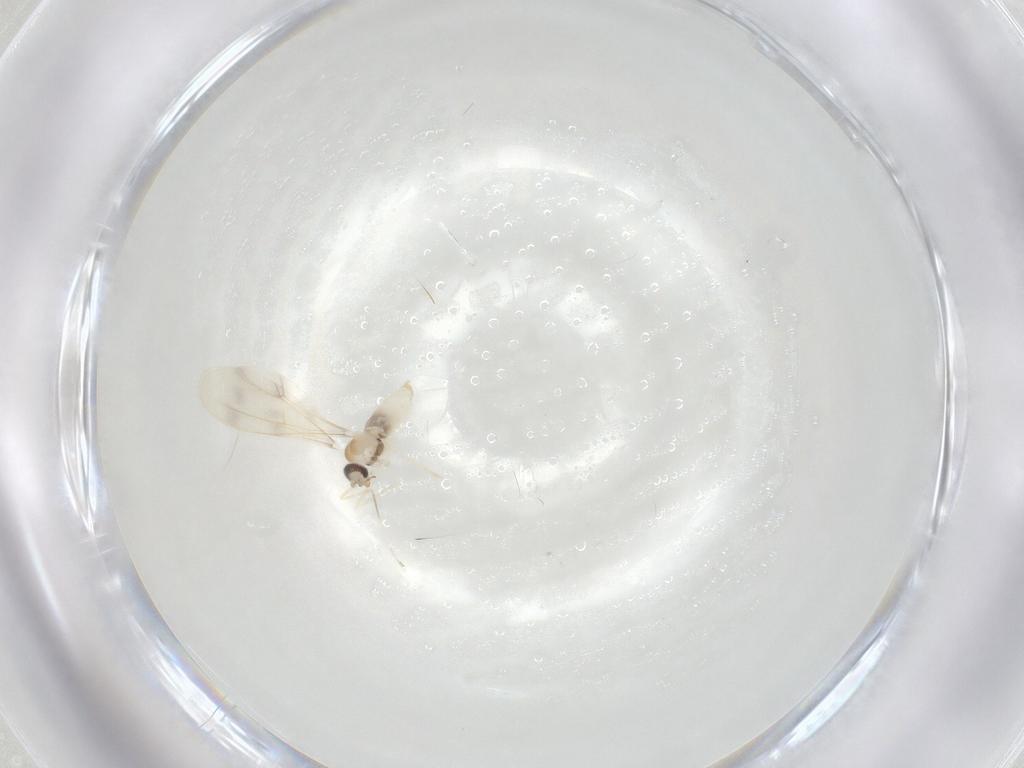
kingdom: Animalia
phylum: Arthropoda
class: Insecta
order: Diptera
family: Cecidomyiidae
